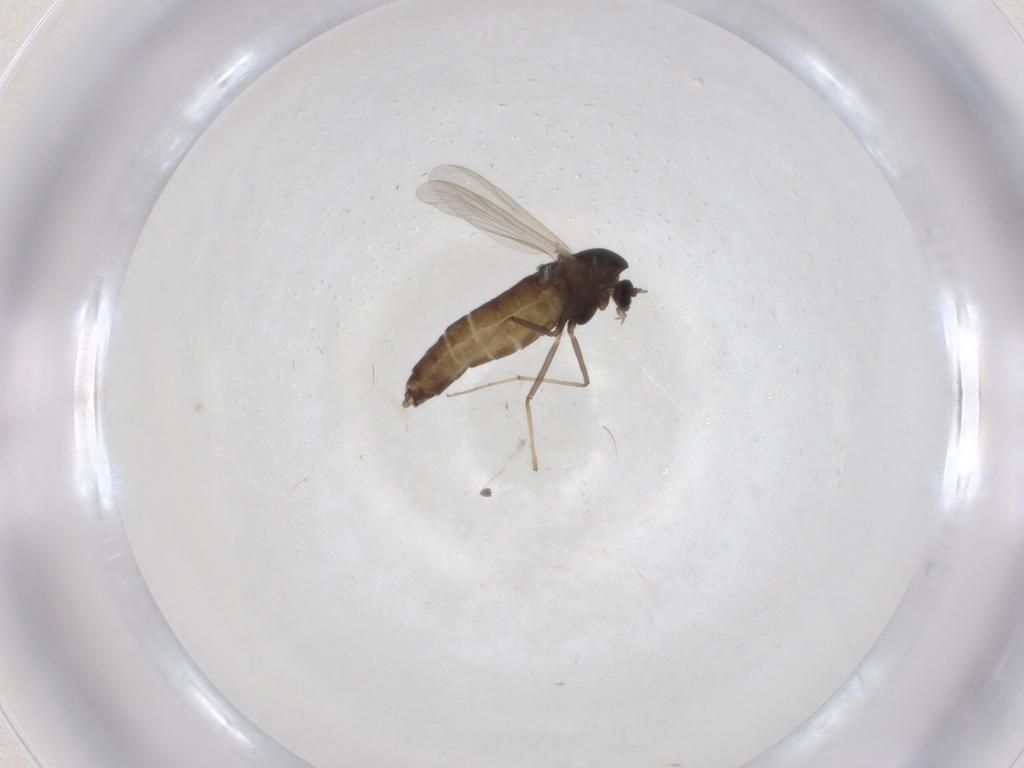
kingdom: Animalia
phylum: Arthropoda
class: Insecta
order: Diptera
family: Chironomidae
